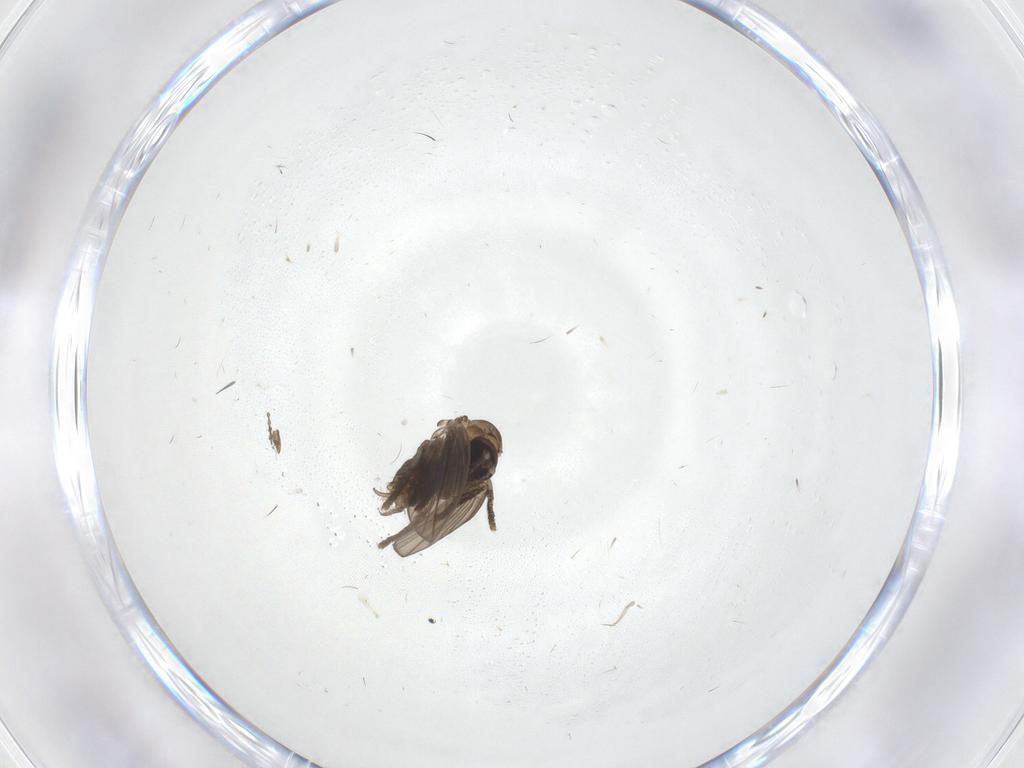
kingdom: Animalia
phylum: Arthropoda
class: Insecta
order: Diptera
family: Psychodidae
